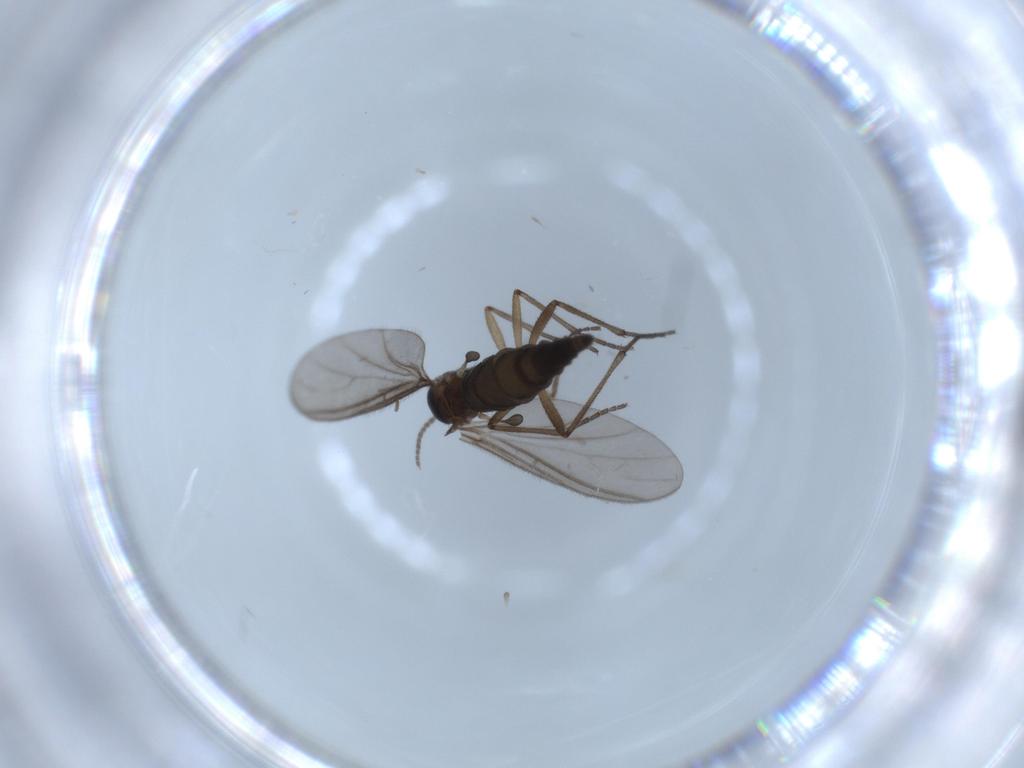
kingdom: Animalia
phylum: Arthropoda
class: Insecta
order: Diptera
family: Sciaridae
